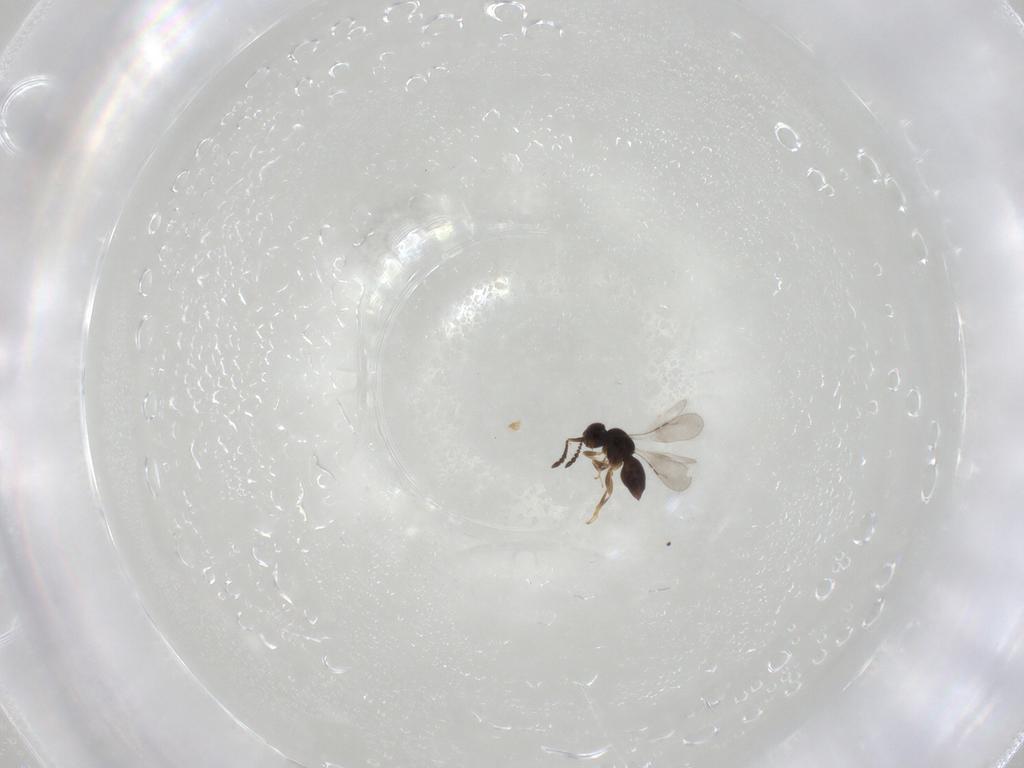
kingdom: Animalia
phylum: Arthropoda
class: Insecta
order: Hymenoptera
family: Mymaridae
